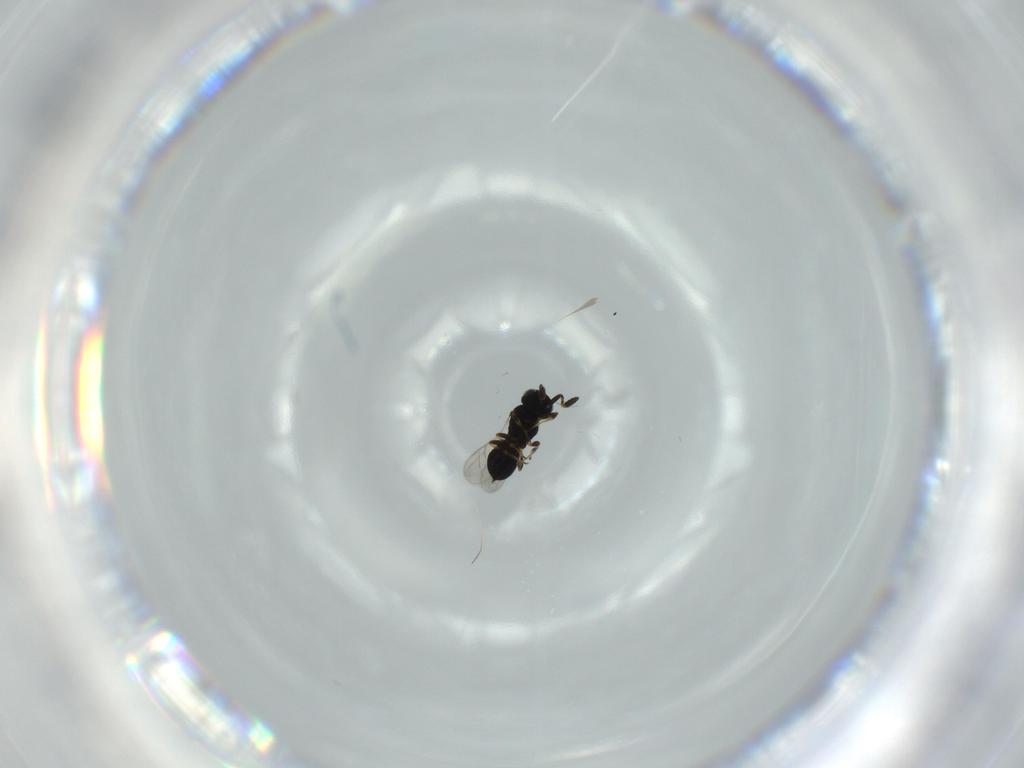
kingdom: Animalia
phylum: Arthropoda
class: Insecta
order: Hymenoptera
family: Scelionidae
